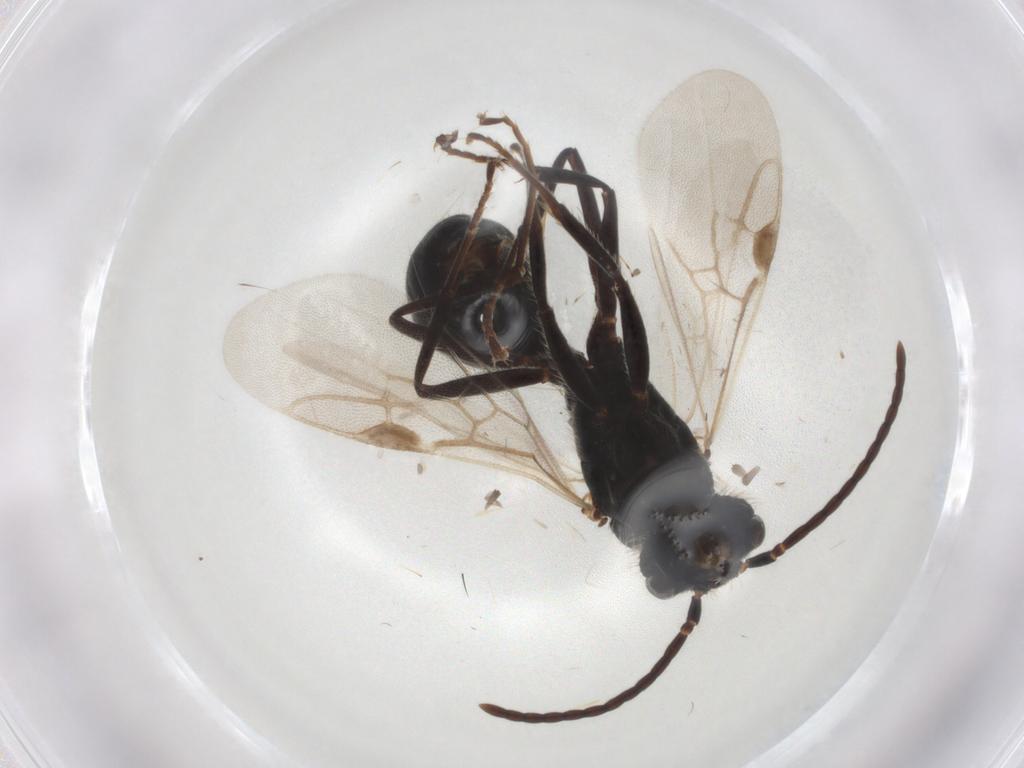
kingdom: Animalia
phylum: Arthropoda
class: Insecta
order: Hymenoptera
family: Formicidae
